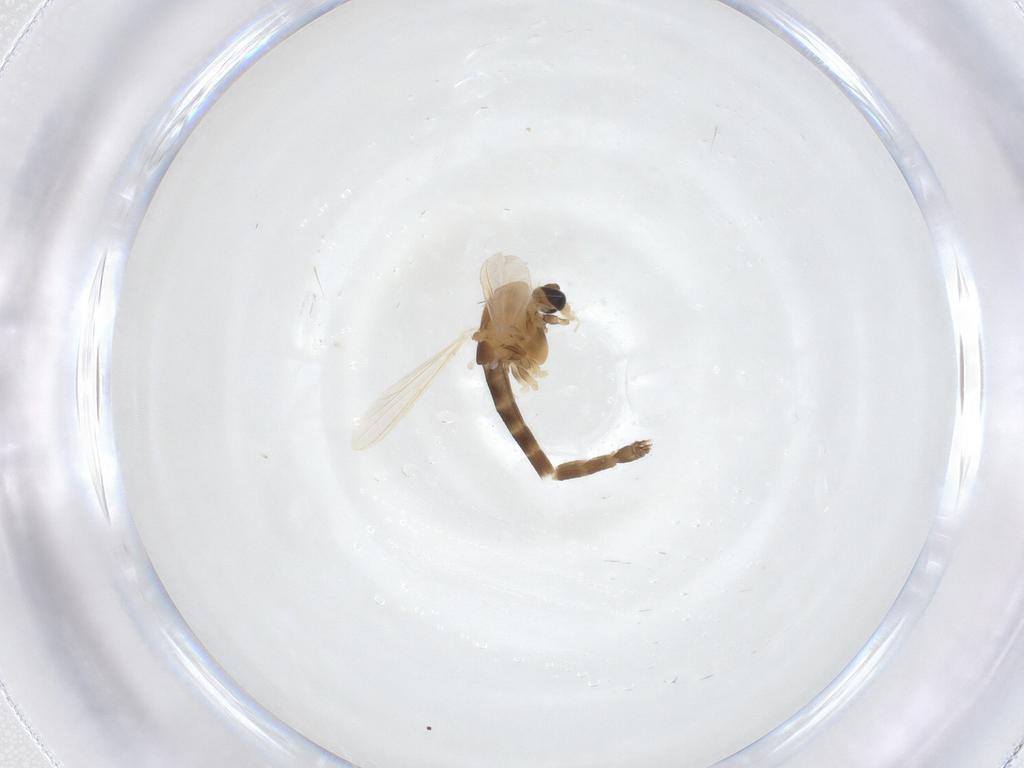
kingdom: Animalia
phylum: Arthropoda
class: Insecta
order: Diptera
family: Chironomidae
